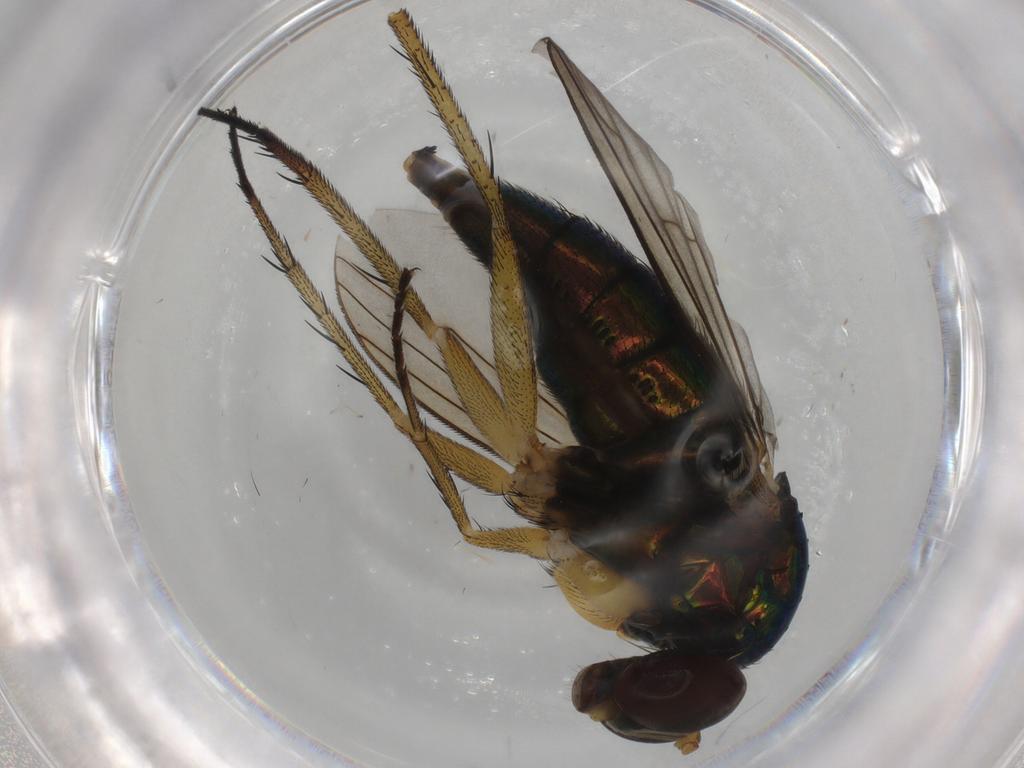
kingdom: Animalia
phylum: Arthropoda
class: Insecta
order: Diptera
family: Dolichopodidae
